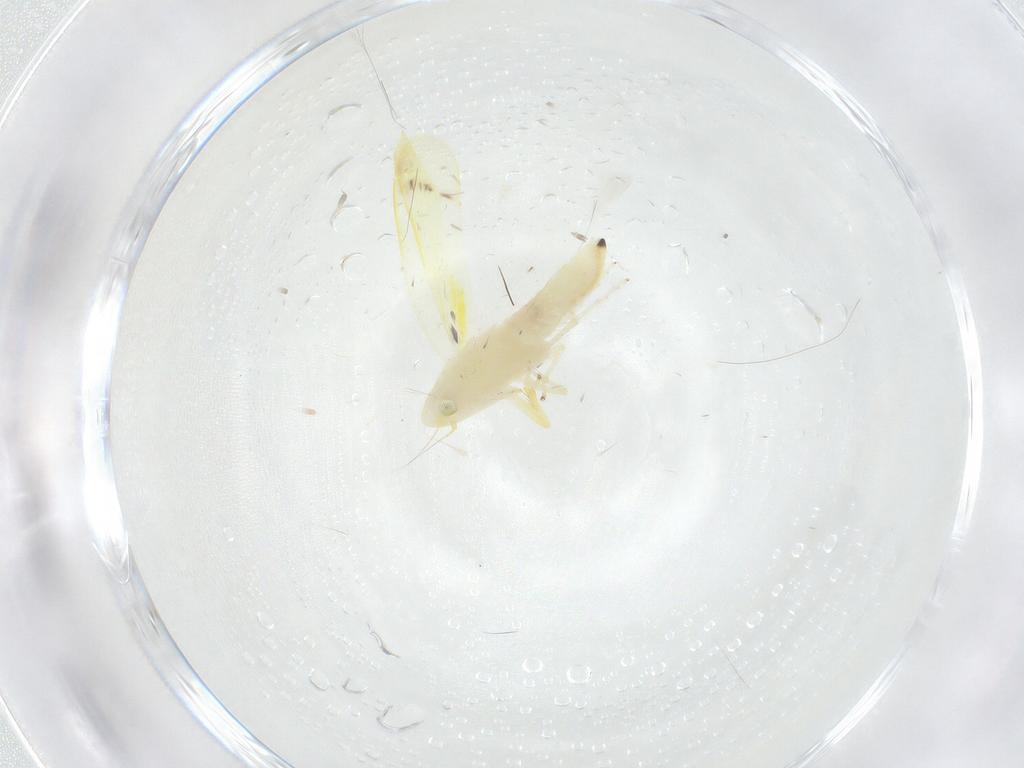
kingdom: Animalia
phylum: Arthropoda
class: Insecta
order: Hemiptera
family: Cicadellidae
